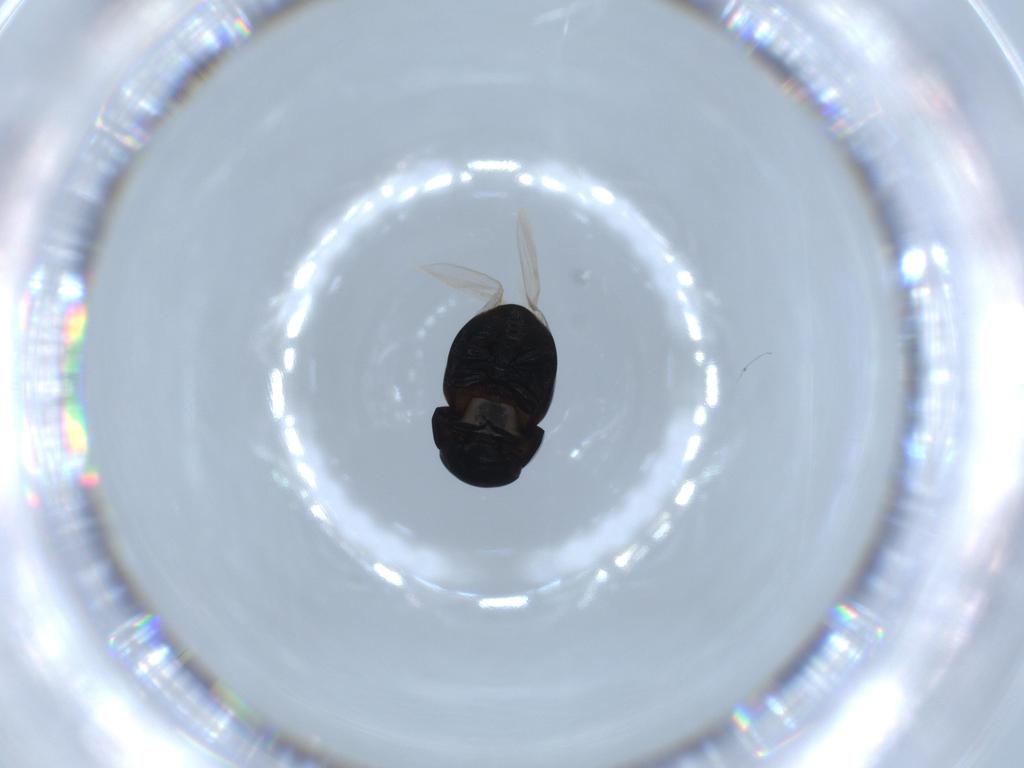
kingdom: Animalia
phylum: Arthropoda
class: Insecta
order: Coleoptera
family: Cybocephalidae
